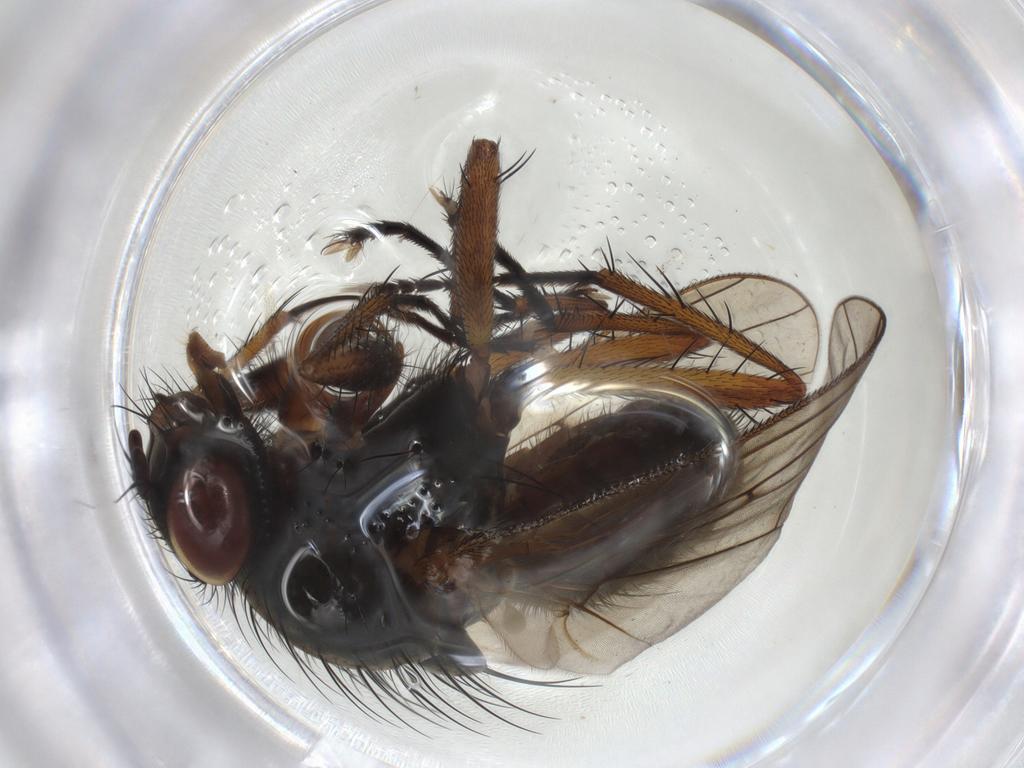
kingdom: Animalia
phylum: Arthropoda
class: Insecta
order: Diptera
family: Anthomyiidae
